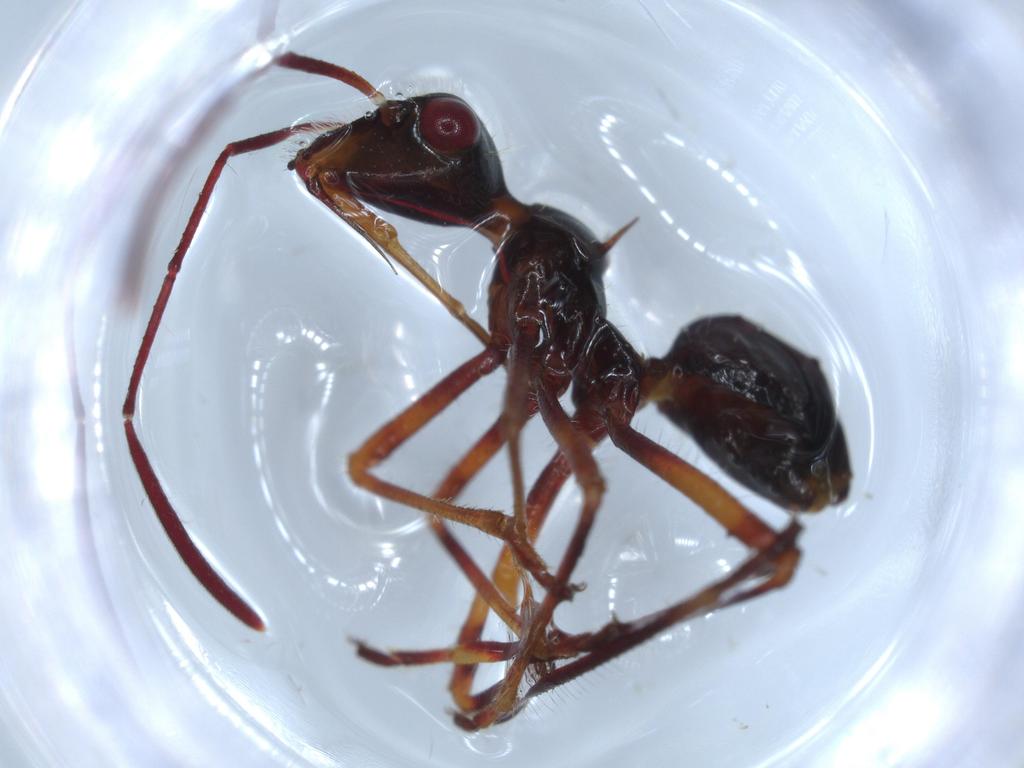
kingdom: Animalia
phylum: Arthropoda
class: Insecta
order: Hemiptera
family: Alydidae
